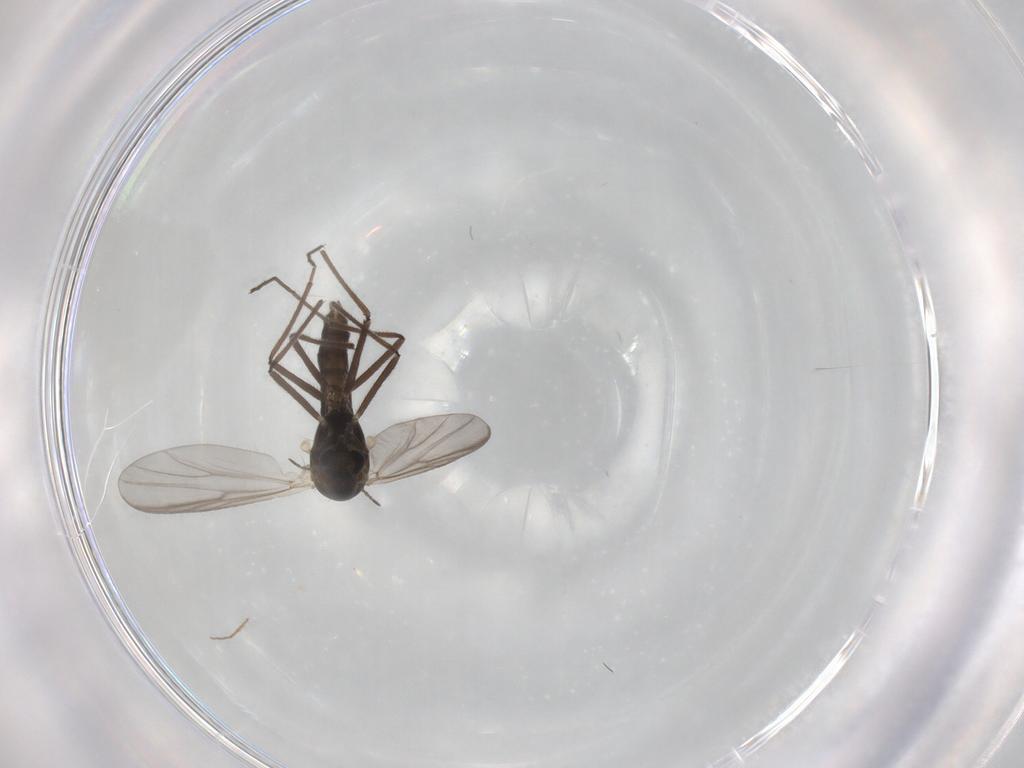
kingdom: Animalia
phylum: Arthropoda
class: Insecta
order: Diptera
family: Chironomidae
